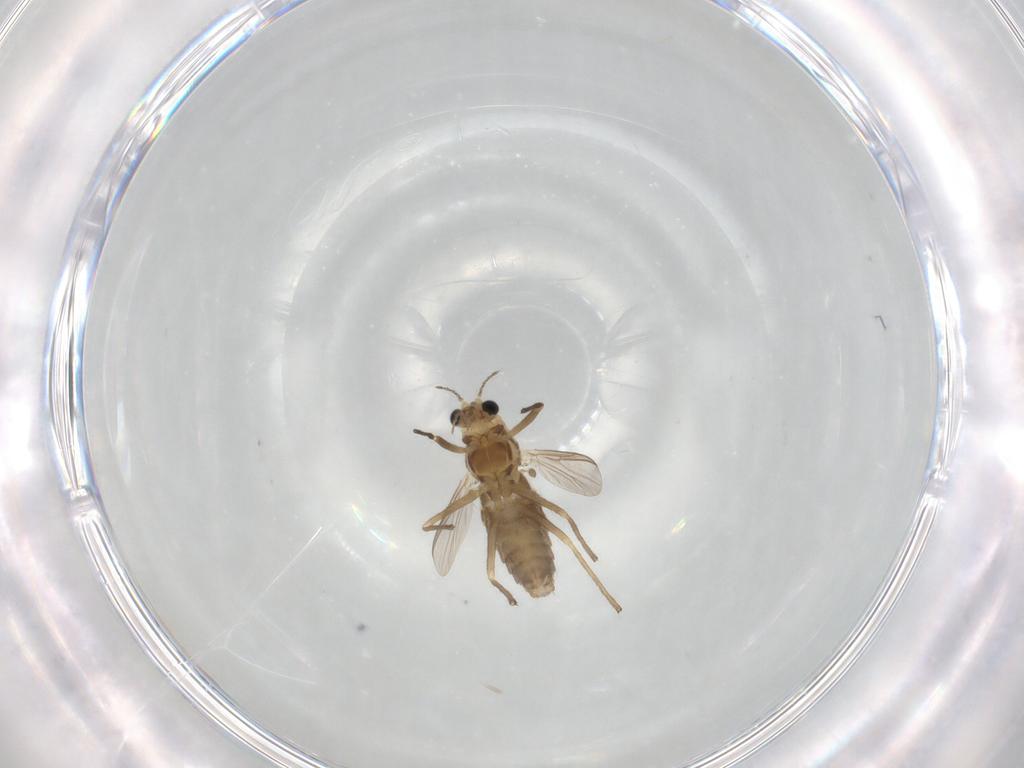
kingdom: Animalia
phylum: Arthropoda
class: Insecta
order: Diptera
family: Chironomidae
